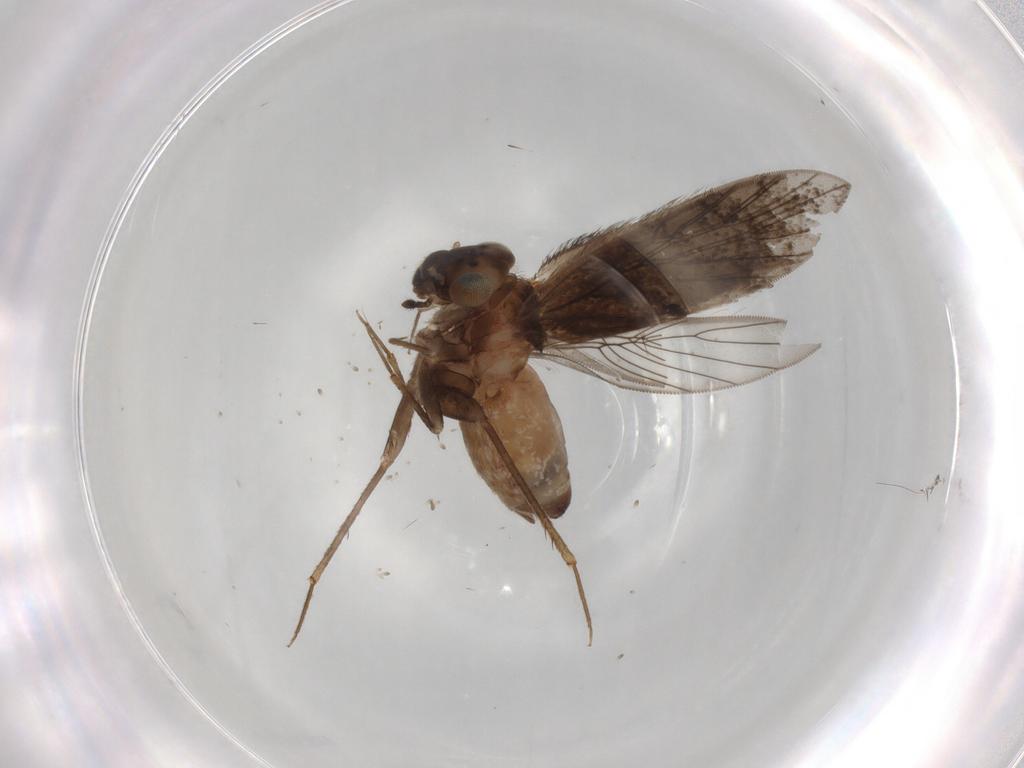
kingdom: Animalia
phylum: Arthropoda
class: Insecta
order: Psocodea
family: Lepidopsocidae
